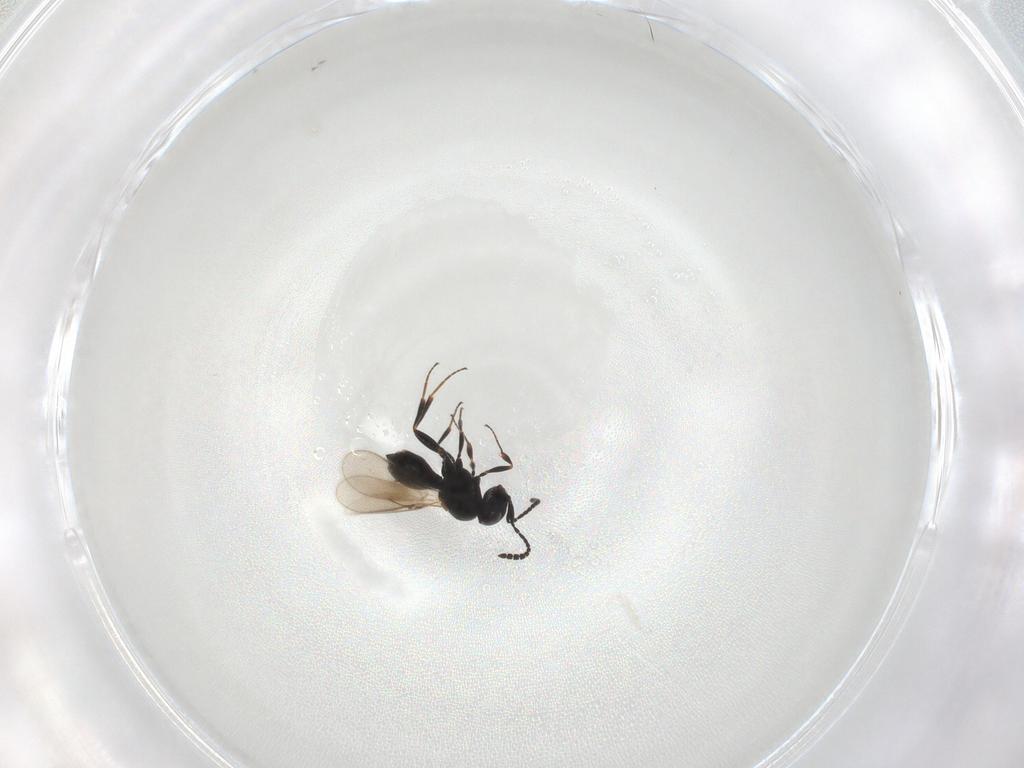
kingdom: Animalia
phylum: Arthropoda
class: Insecta
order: Hymenoptera
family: Scelionidae
